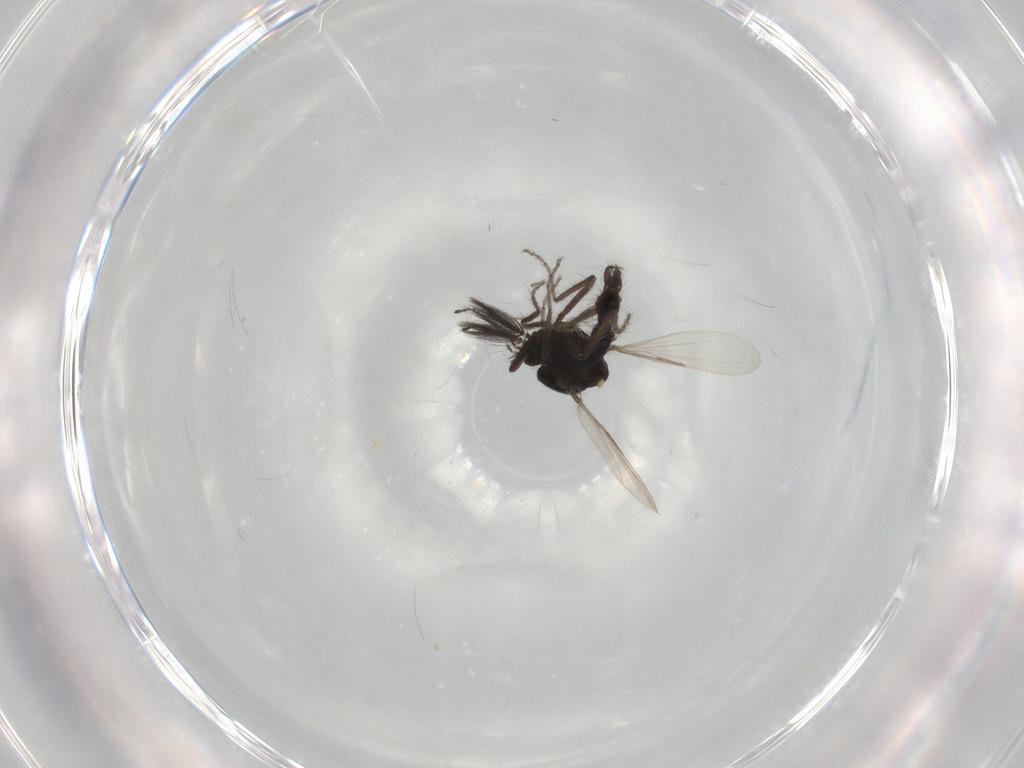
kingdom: Animalia
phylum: Arthropoda
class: Insecta
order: Diptera
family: Ceratopogonidae
